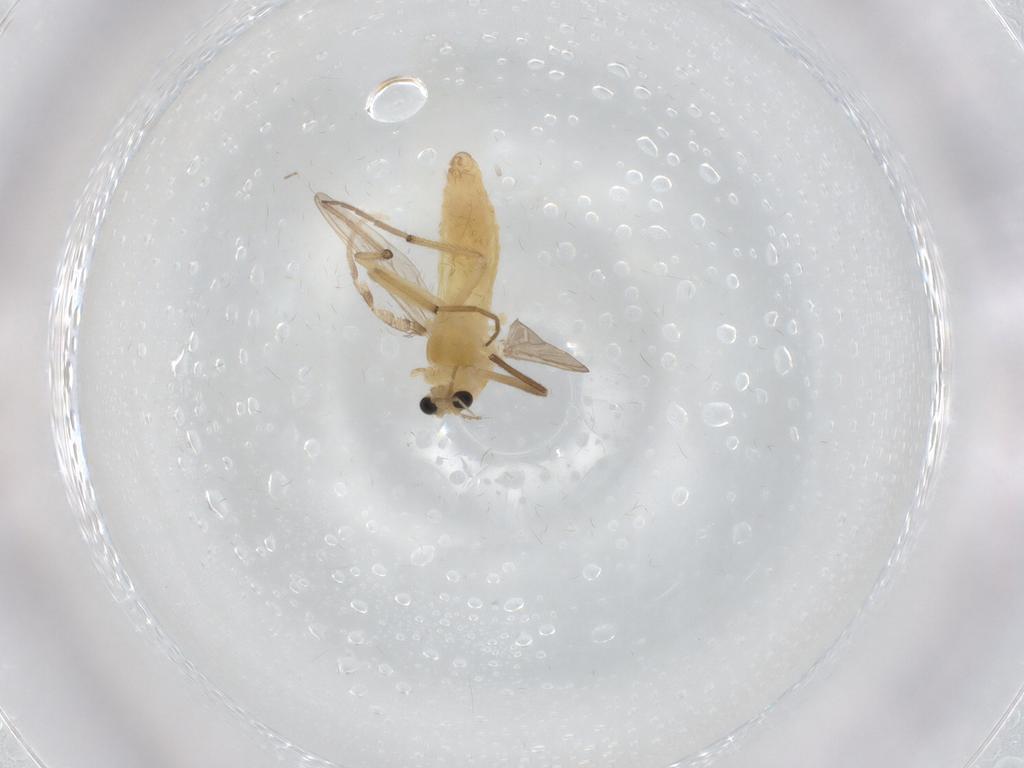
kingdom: Animalia
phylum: Arthropoda
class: Insecta
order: Diptera
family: Chironomidae
